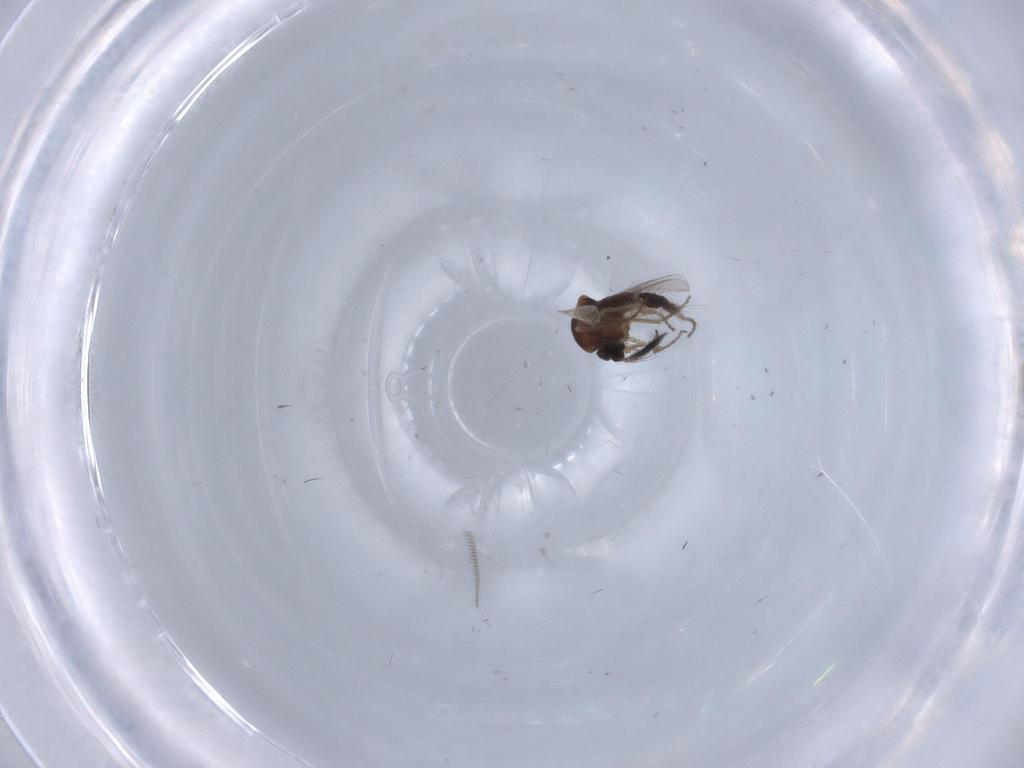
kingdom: Animalia
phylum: Arthropoda
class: Insecta
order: Diptera
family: Chironomidae
